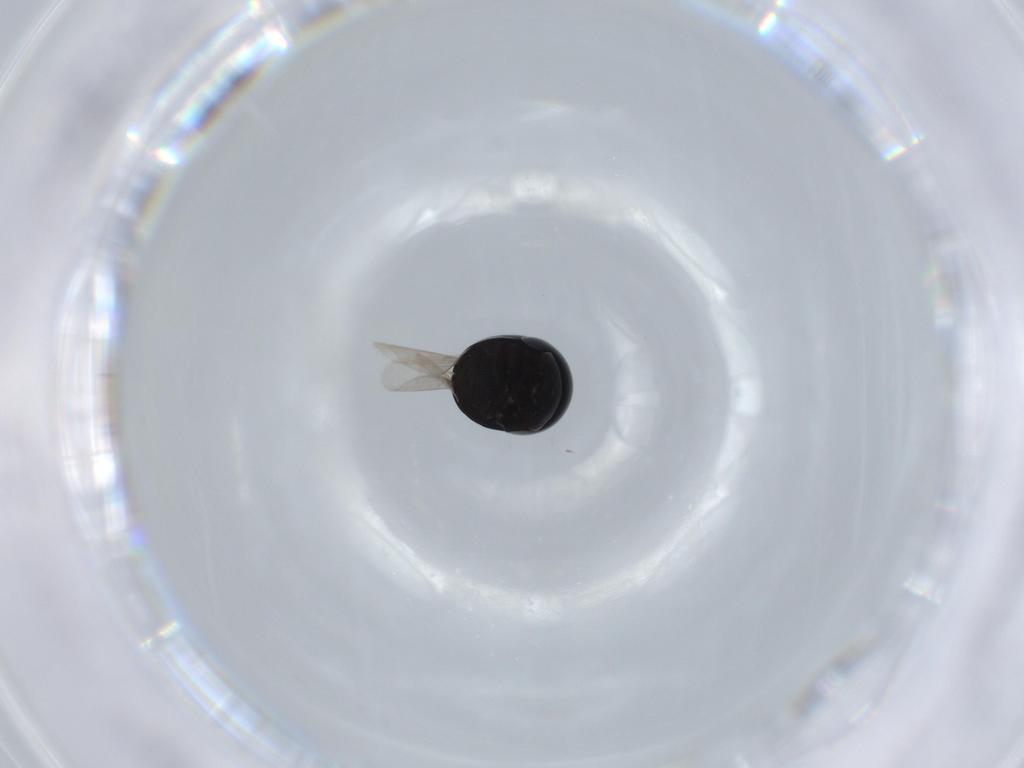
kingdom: Animalia
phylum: Arthropoda
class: Insecta
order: Coleoptera
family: Cybocephalidae
